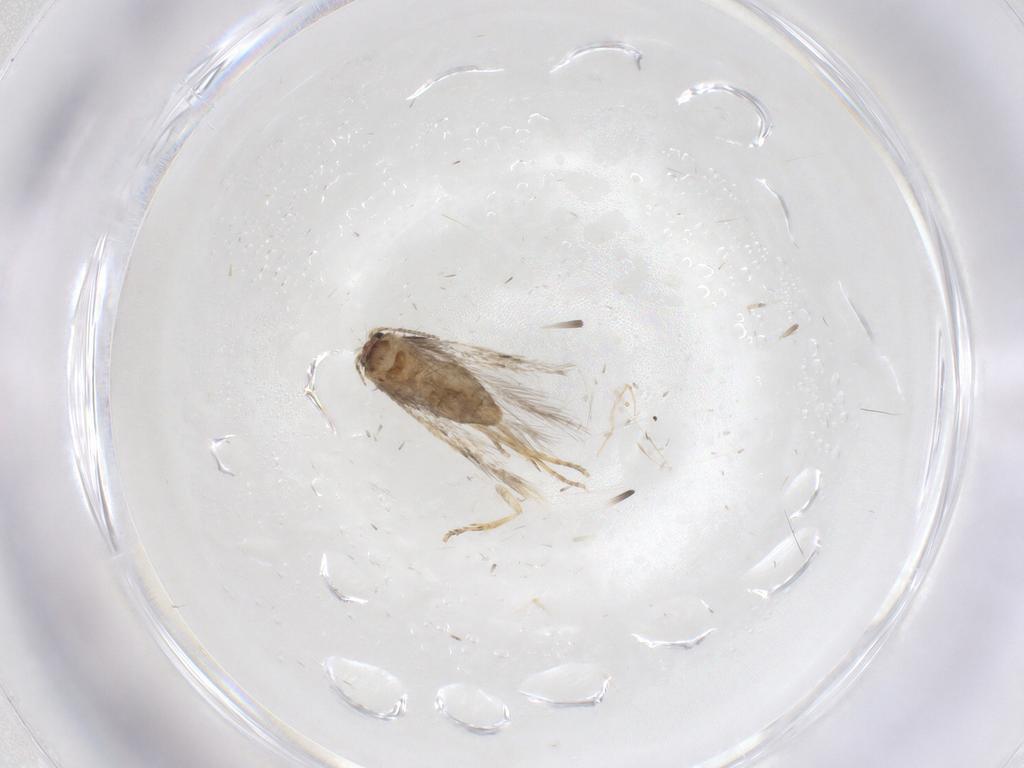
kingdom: Animalia
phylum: Arthropoda
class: Insecta
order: Lepidoptera
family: Nepticulidae
